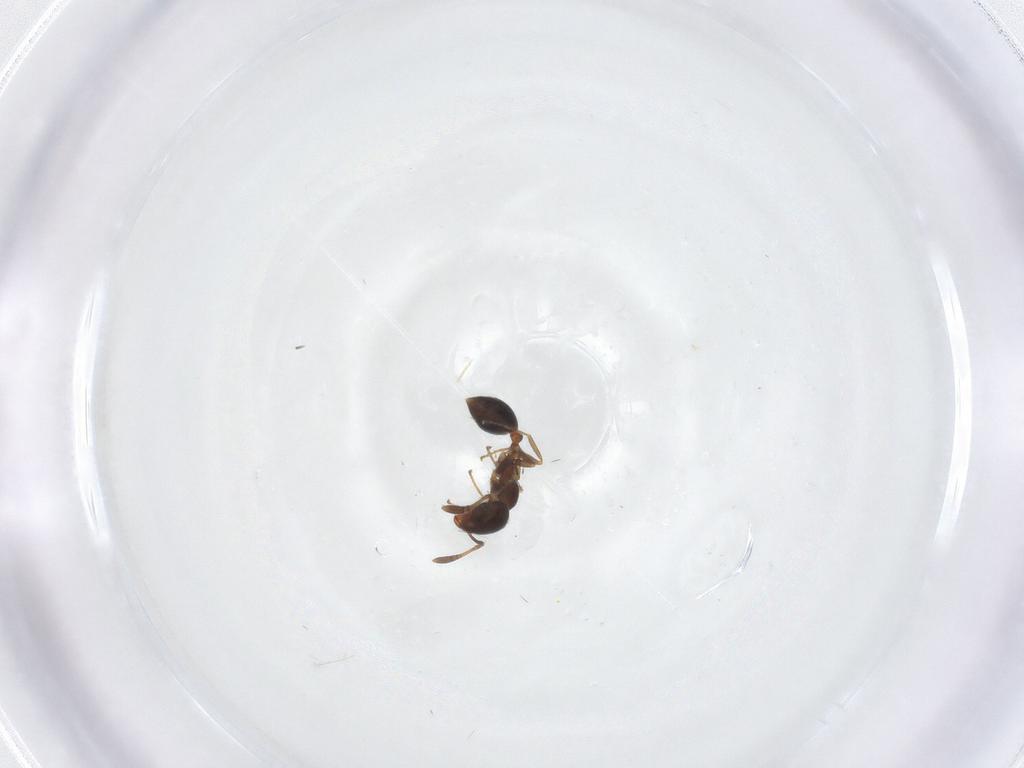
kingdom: Animalia
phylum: Arthropoda
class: Insecta
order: Hymenoptera
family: Formicidae
